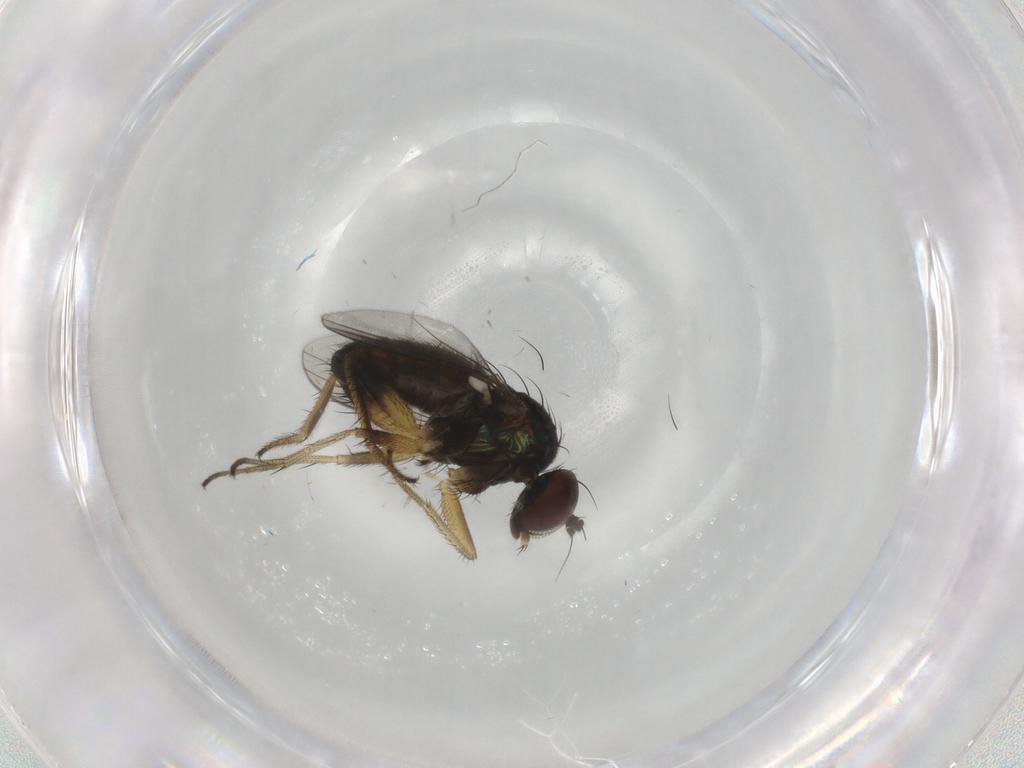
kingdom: Animalia
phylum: Arthropoda
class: Insecta
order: Diptera
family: Dolichopodidae
